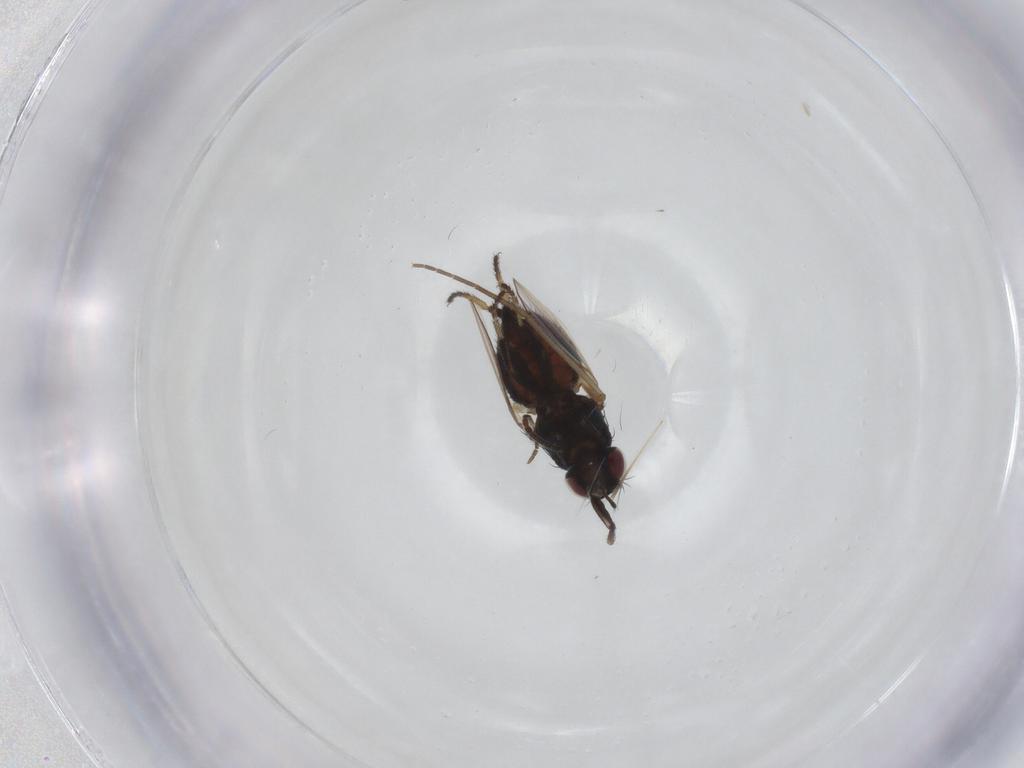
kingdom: Animalia
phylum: Arthropoda
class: Insecta
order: Diptera
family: Milichiidae
